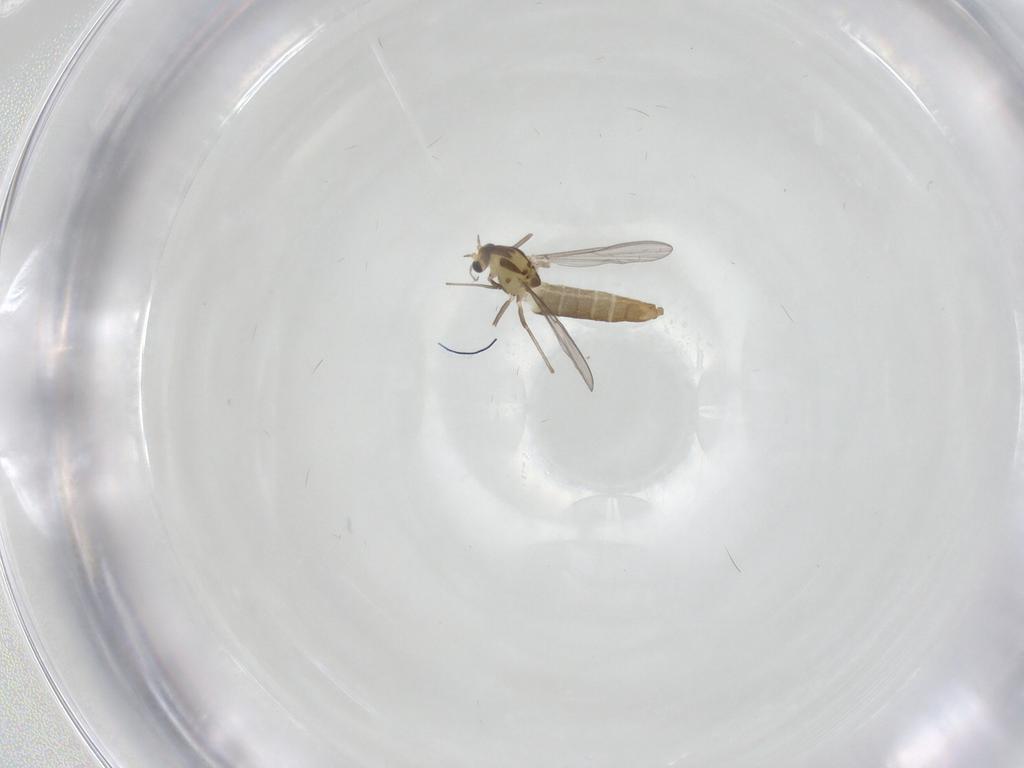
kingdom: Animalia
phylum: Arthropoda
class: Insecta
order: Diptera
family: Chironomidae
